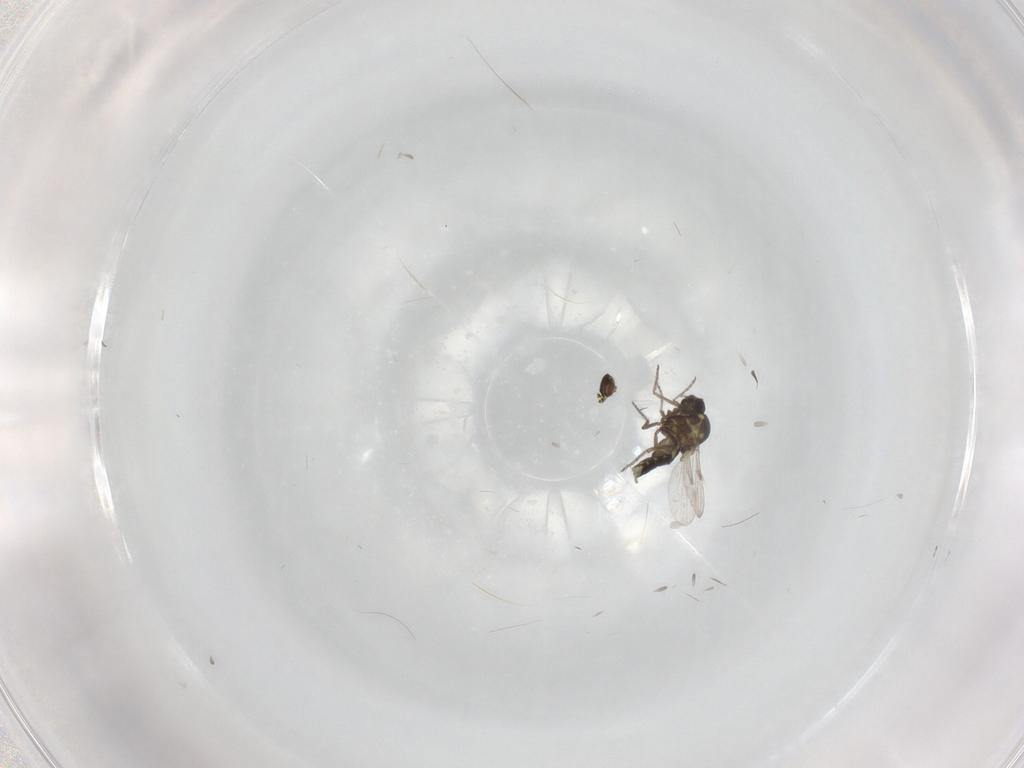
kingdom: Animalia
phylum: Arthropoda
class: Insecta
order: Diptera
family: Ceratopogonidae
